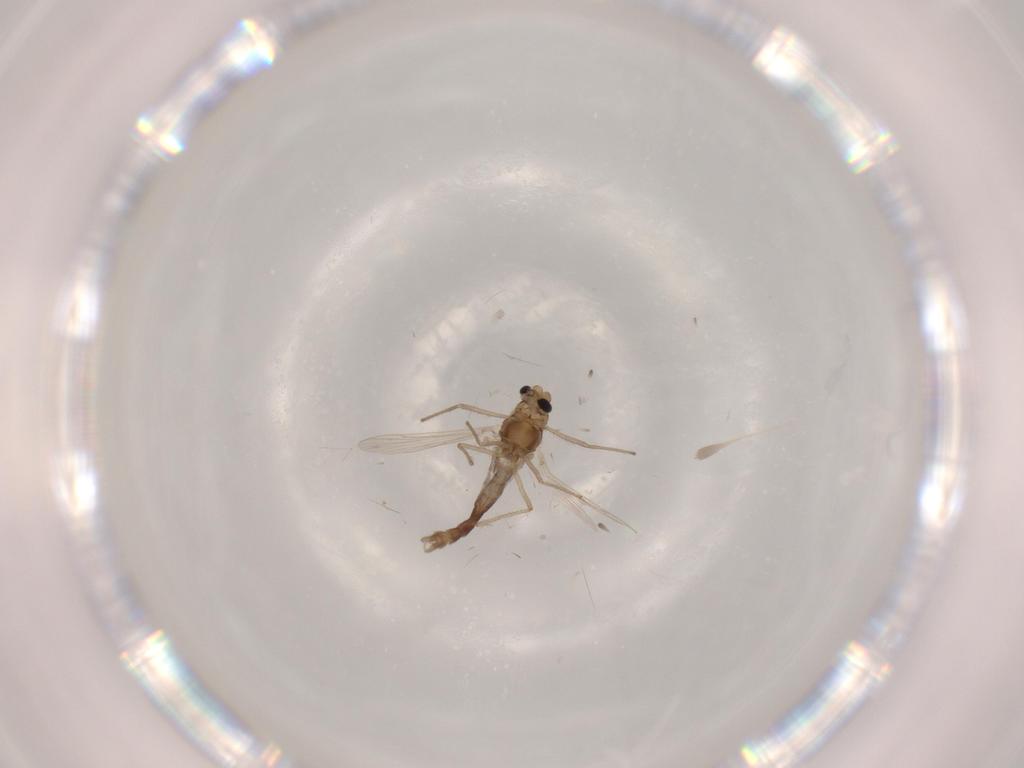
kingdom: Animalia
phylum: Arthropoda
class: Insecta
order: Diptera
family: Chironomidae
